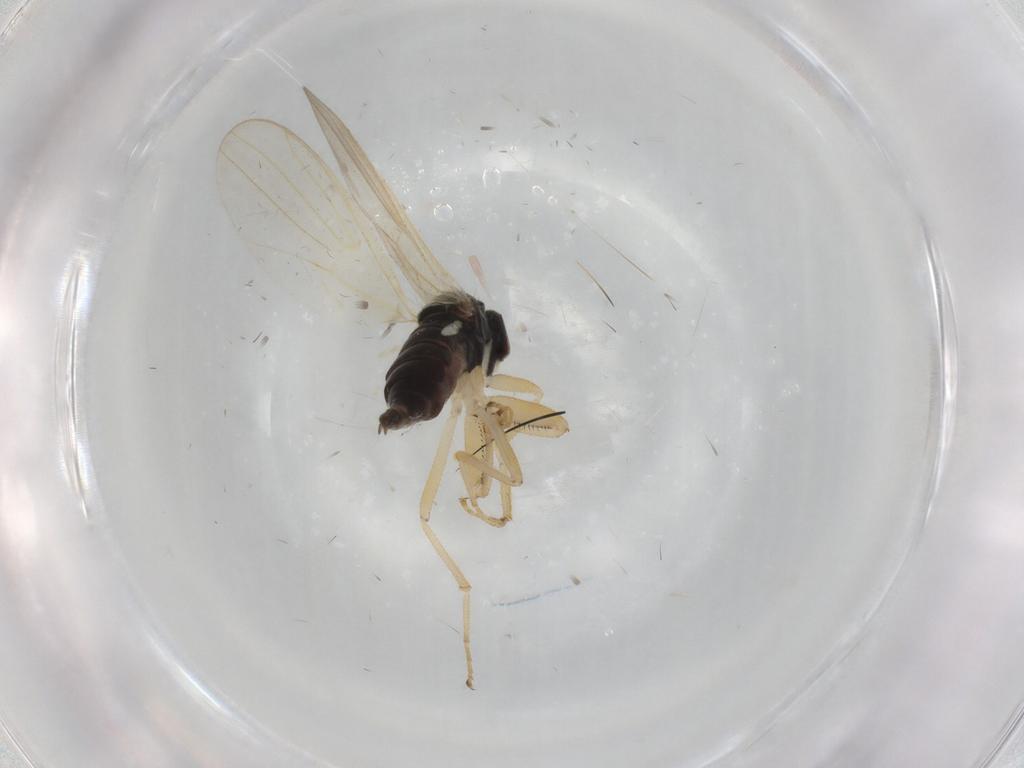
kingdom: Animalia
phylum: Arthropoda
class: Insecta
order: Diptera
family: Hybotidae
